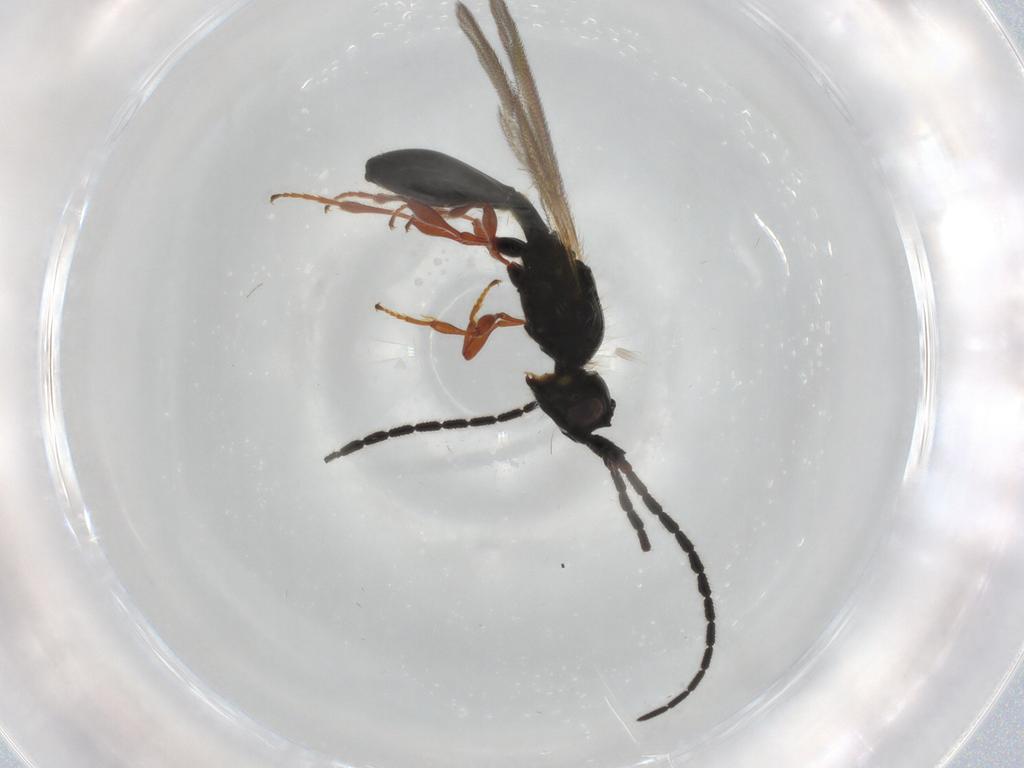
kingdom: Animalia
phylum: Arthropoda
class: Insecta
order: Hymenoptera
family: Diapriidae
